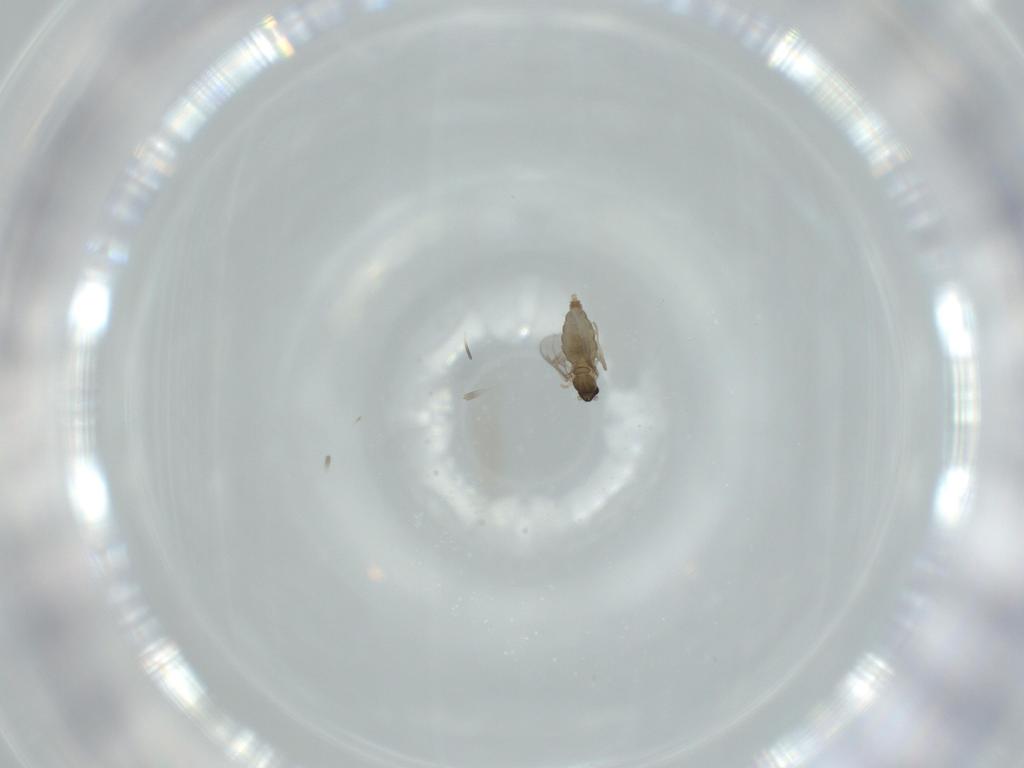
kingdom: Animalia
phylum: Arthropoda
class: Insecta
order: Diptera
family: Cecidomyiidae
